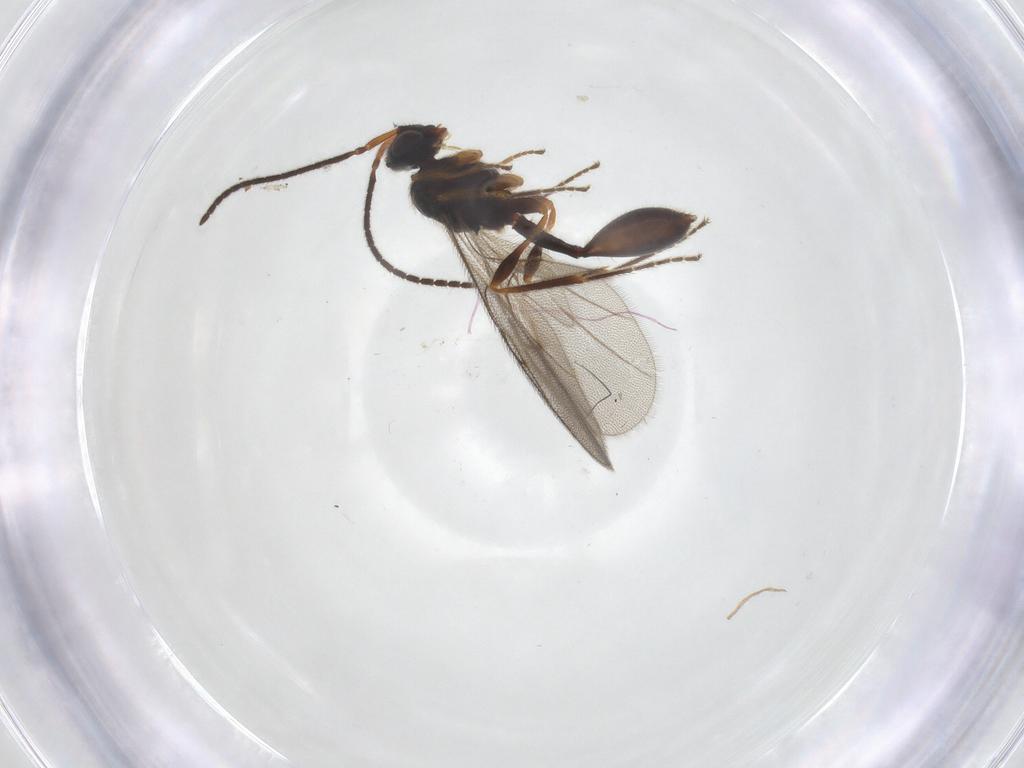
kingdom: Animalia
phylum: Arthropoda
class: Insecta
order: Hymenoptera
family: Diapriidae
